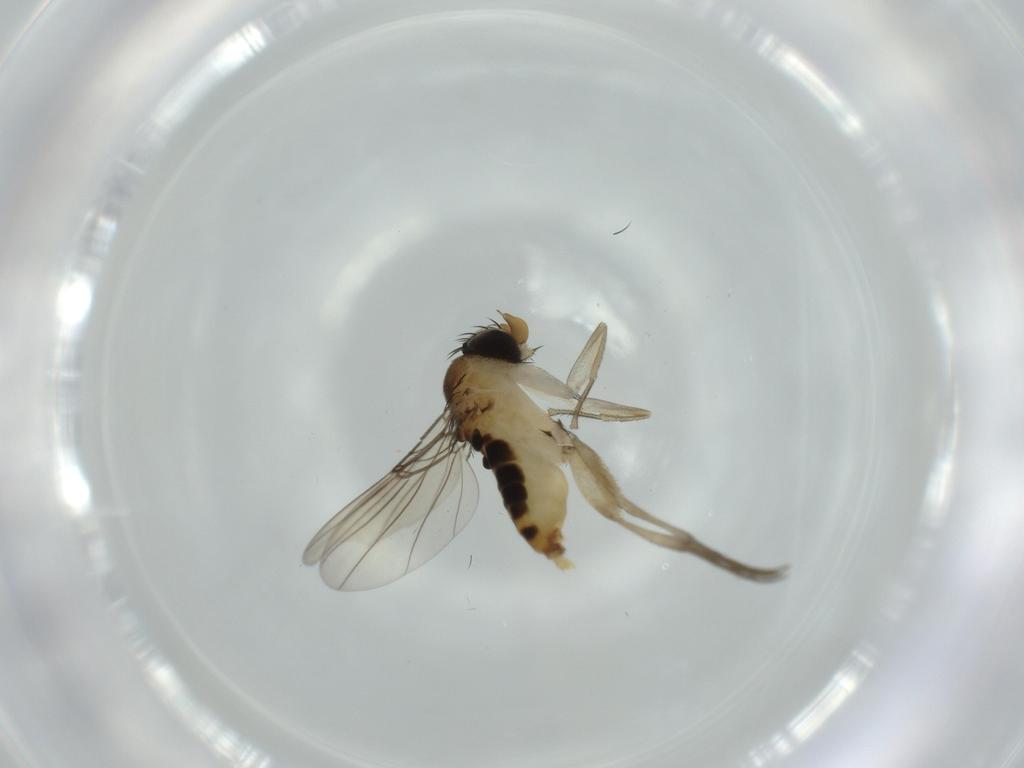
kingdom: Animalia
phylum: Arthropoda
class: Insecta
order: Diptera
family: Phoridae
